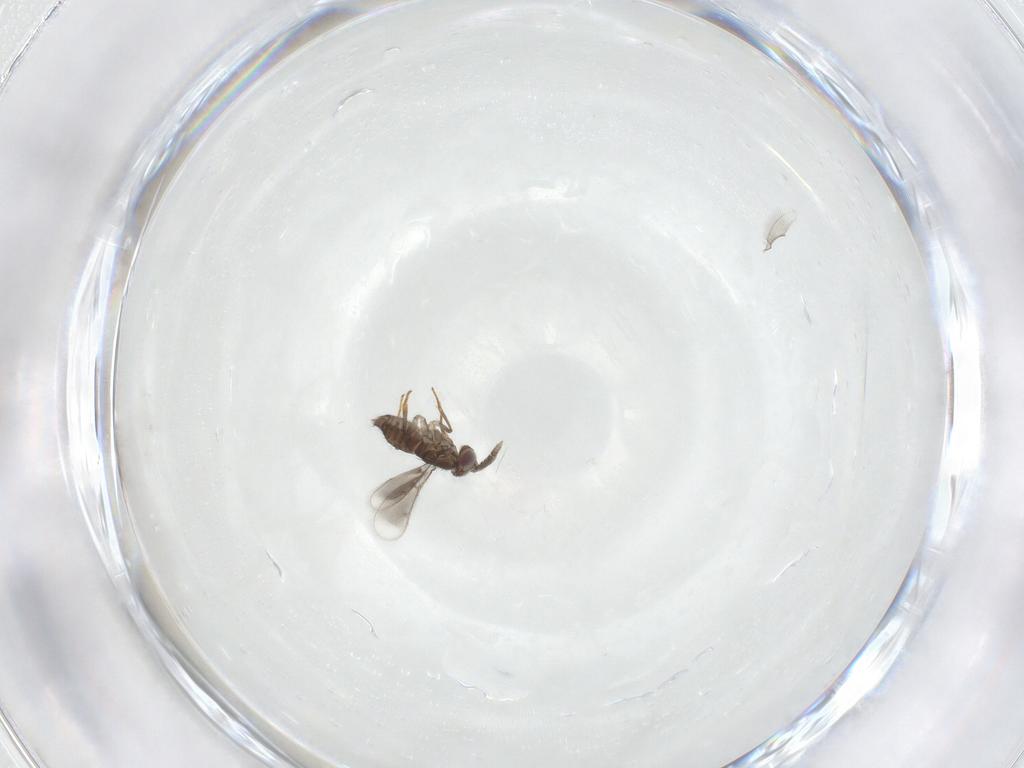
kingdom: Animalia
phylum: Arthropoda
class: Insecta
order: Hymenoptera
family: Aphelinidae
